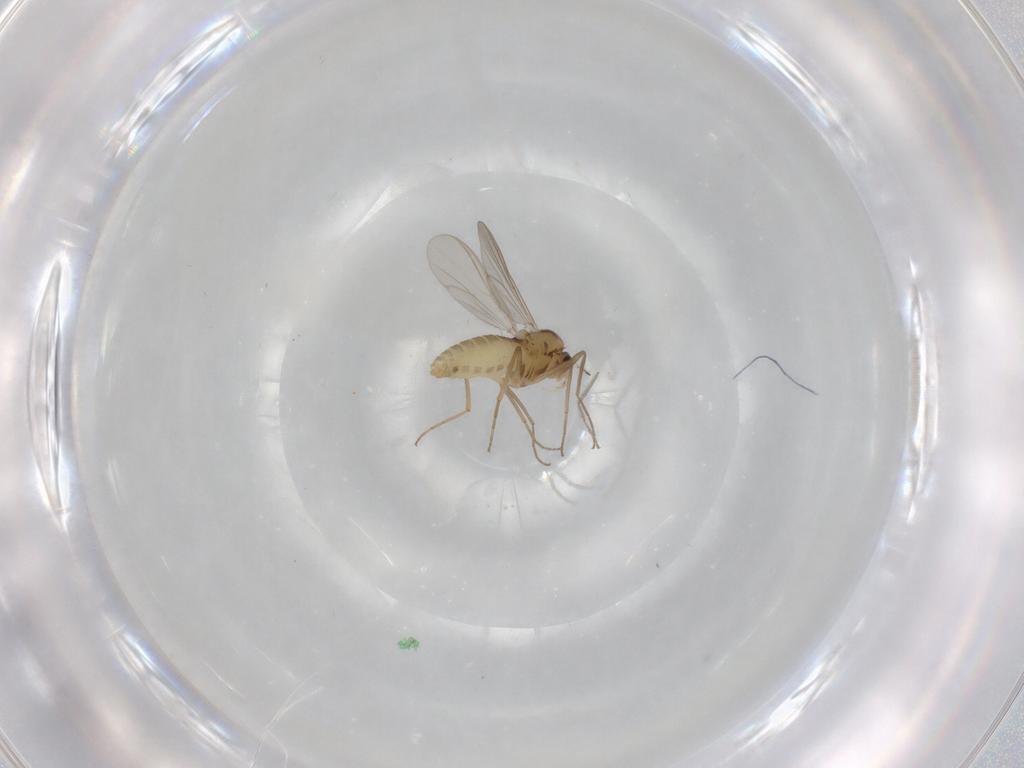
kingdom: Animalia
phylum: Arthropoda
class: Insecta
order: Diptera
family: Chironomidae
